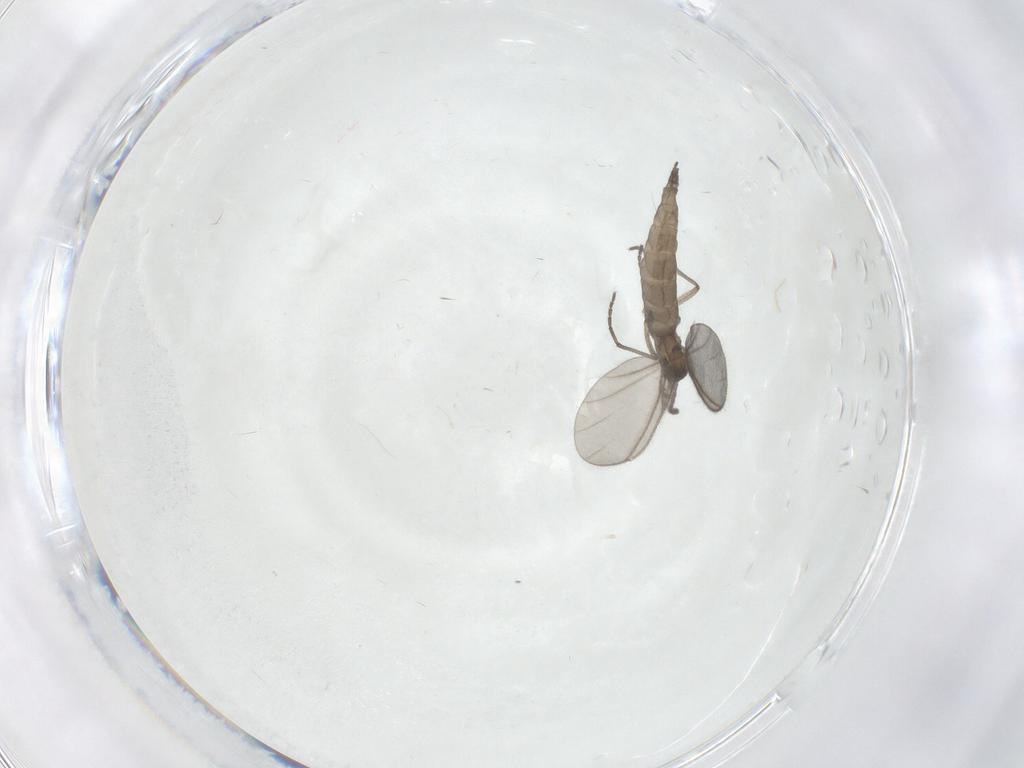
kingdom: Animalia
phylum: Arthropoda
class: Insecta
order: Diptera
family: Sciaridae
